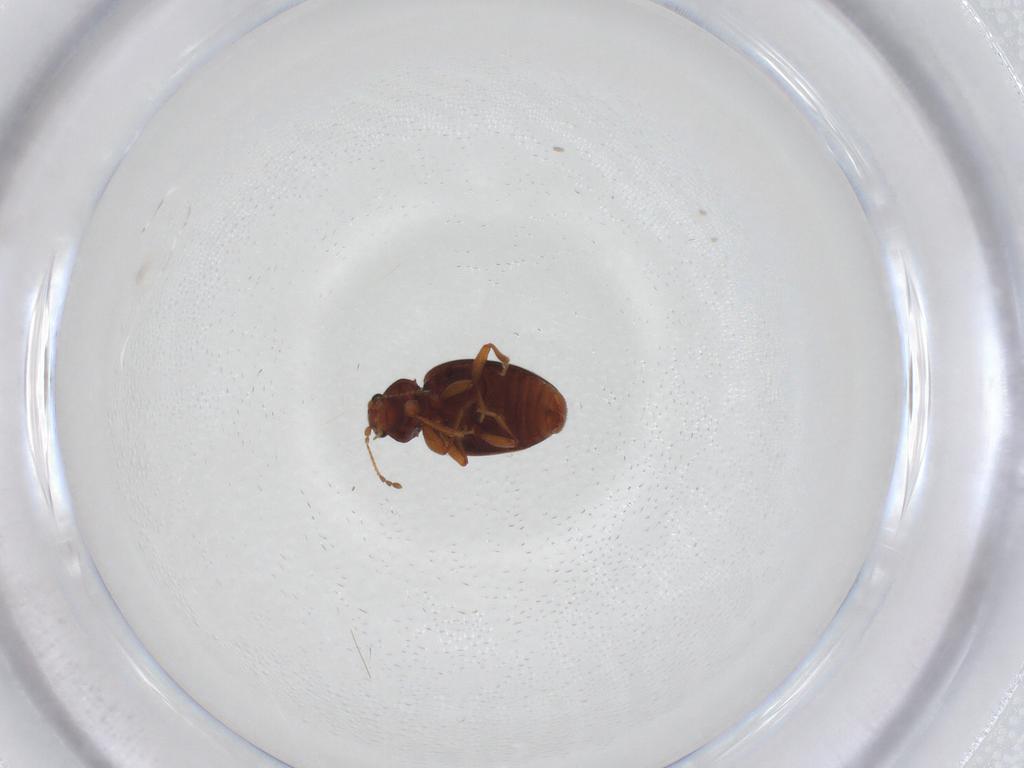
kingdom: Animalia
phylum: Arthropoda
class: Insecta
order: Coleoptera
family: Latridiidae
